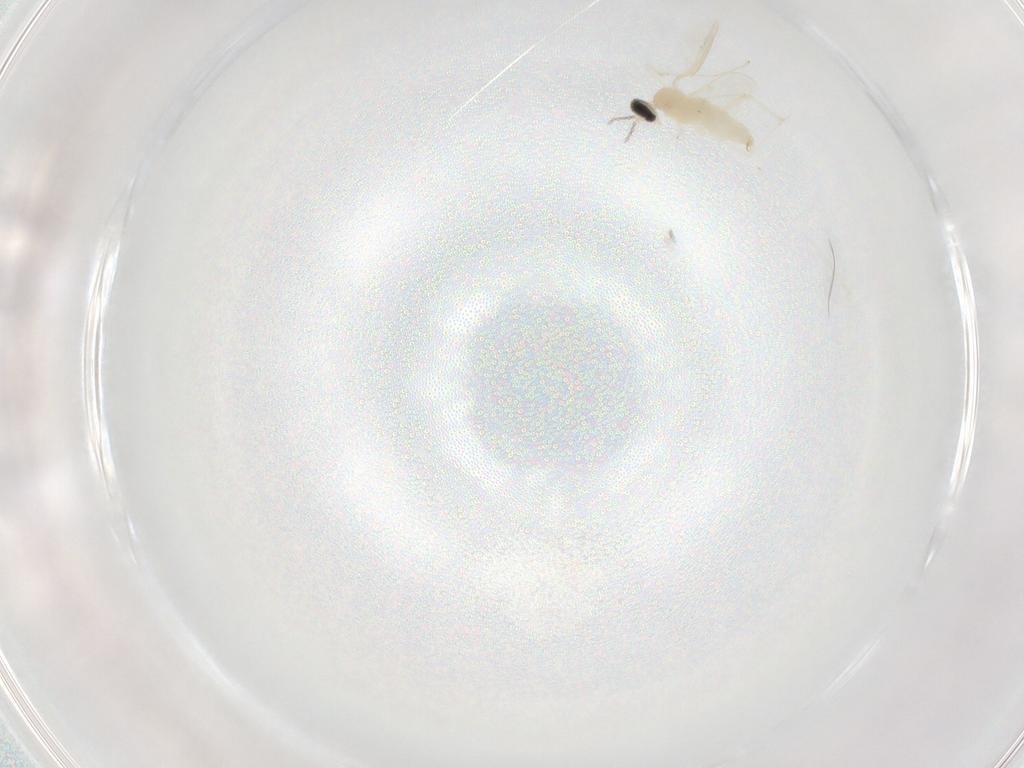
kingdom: Animalia
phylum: Arthropoda
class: Insecta
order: Diptera
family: Cecidomyiidae
